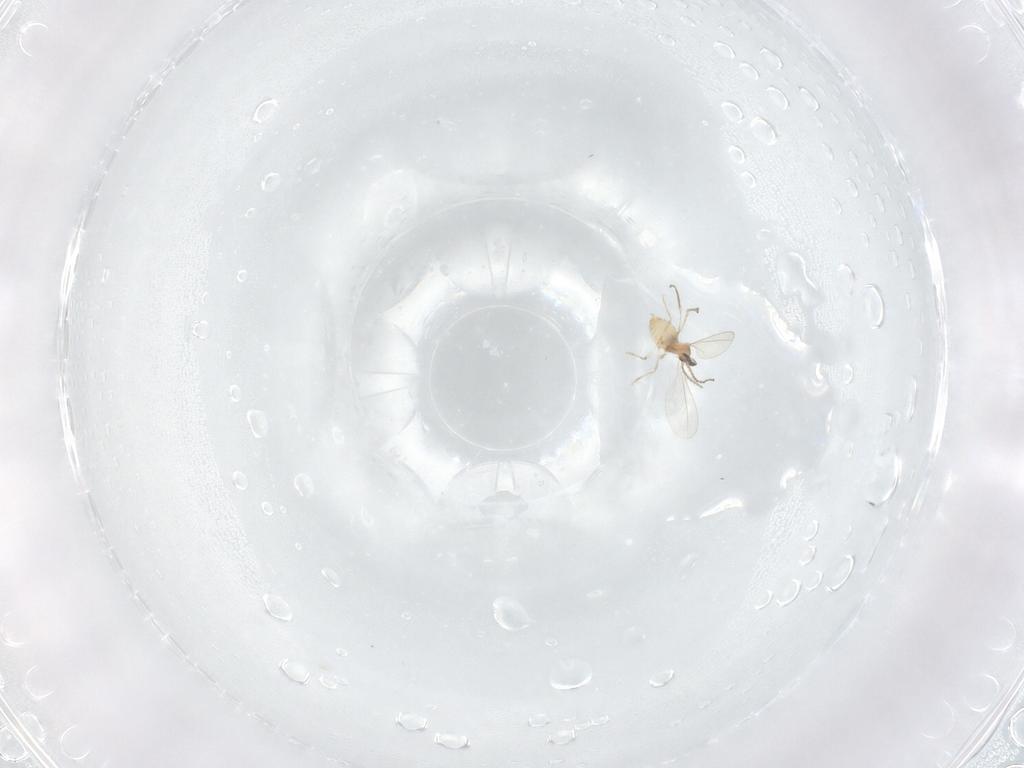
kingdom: Animalia
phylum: Arthropoda
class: Insecta
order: Diptera
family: Cecidomyiidae
